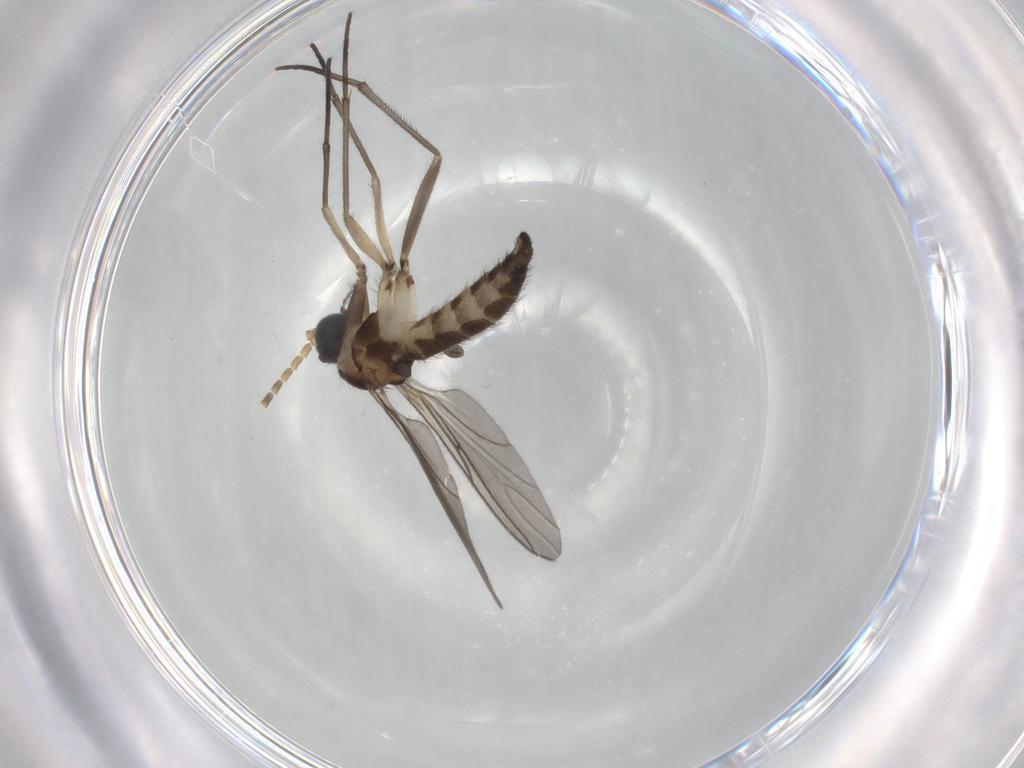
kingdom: Animalia
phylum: Arthropoda
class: Insecta
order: Diptera
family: Sciaridae
